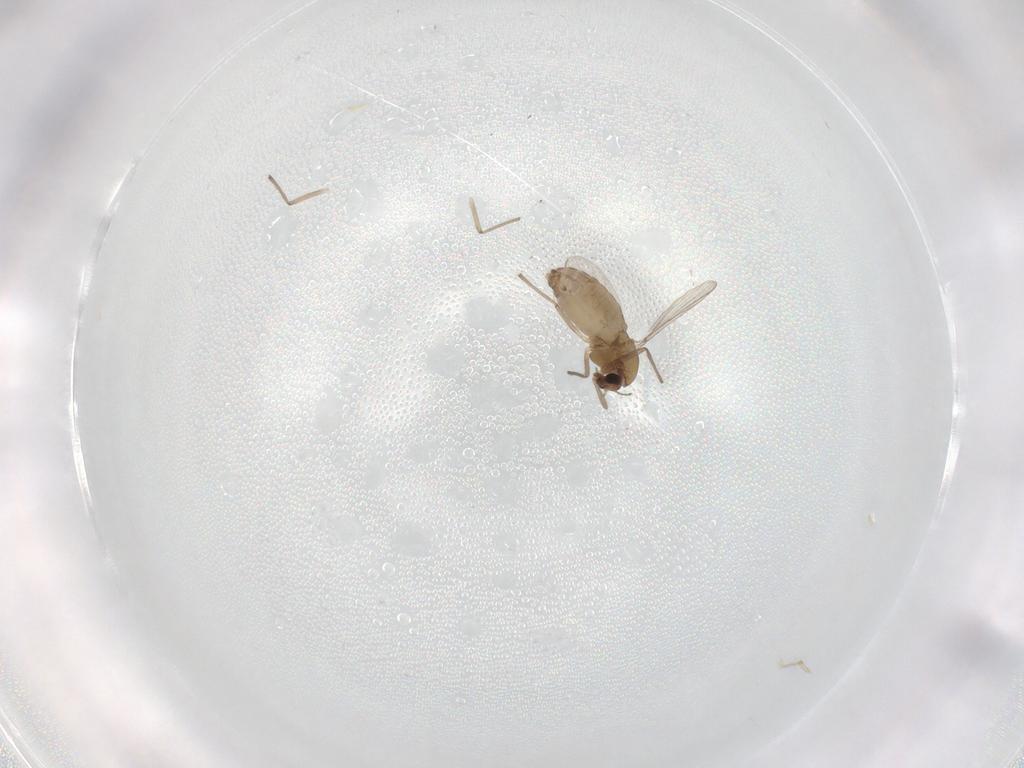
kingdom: Animalia
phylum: Arthropoda
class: Insecta
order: Diptera
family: Chironomidae
